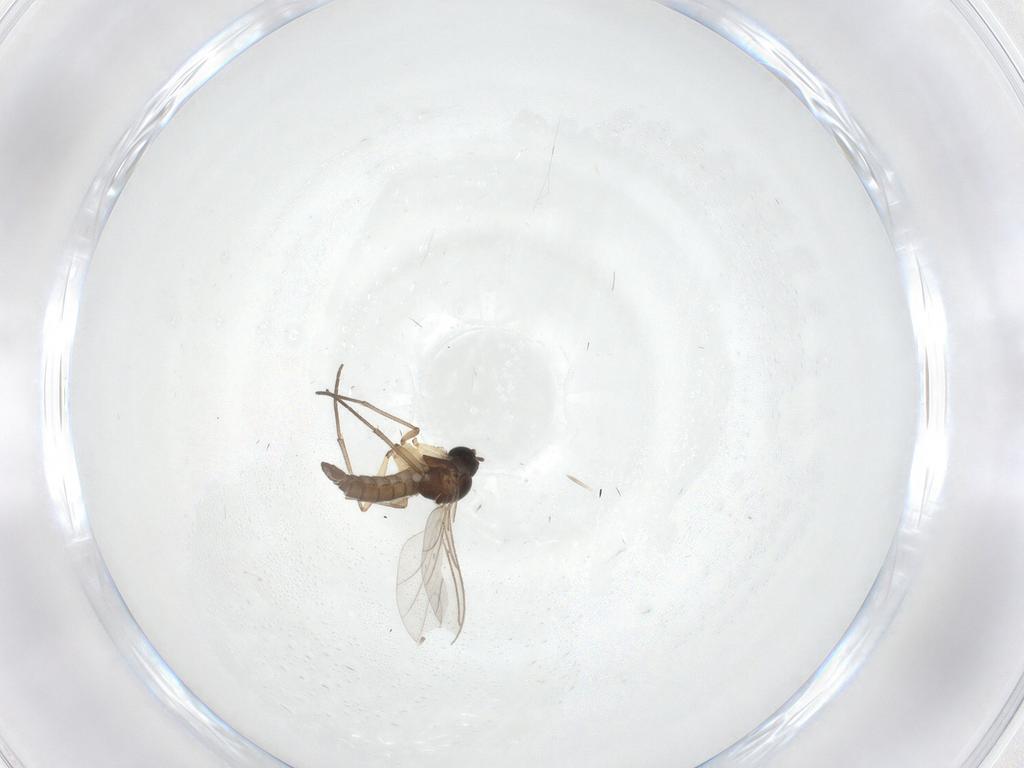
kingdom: Animalia
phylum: Arthropoda
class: Insecta
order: Diptera
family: Sciaridae
